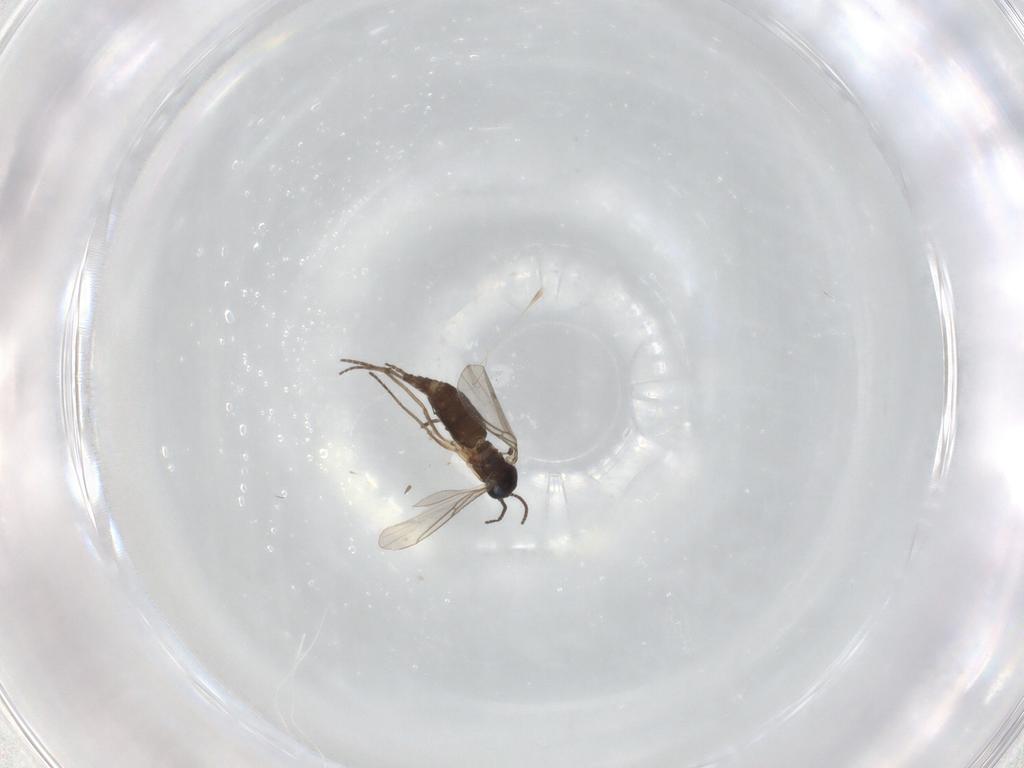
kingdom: Animalia
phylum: Arthropoda
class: Insecta
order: Diptera
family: Sciaridae
